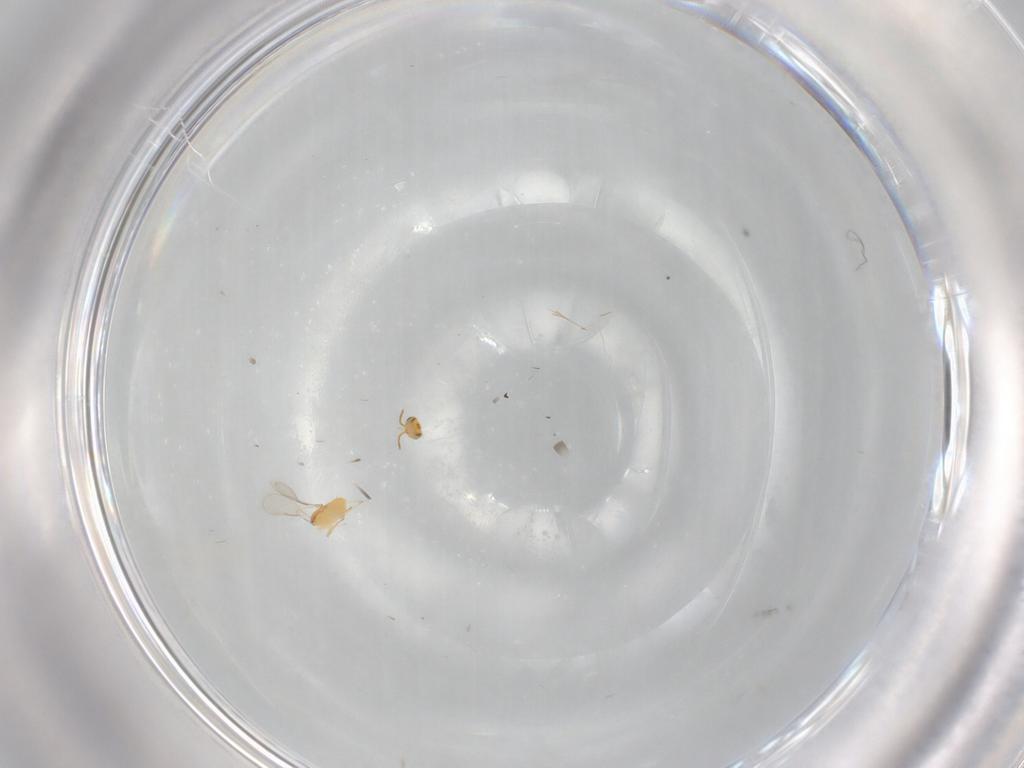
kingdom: Animalia
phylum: Arthropoda
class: Insecta
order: Hymenoptera
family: Braconidae
